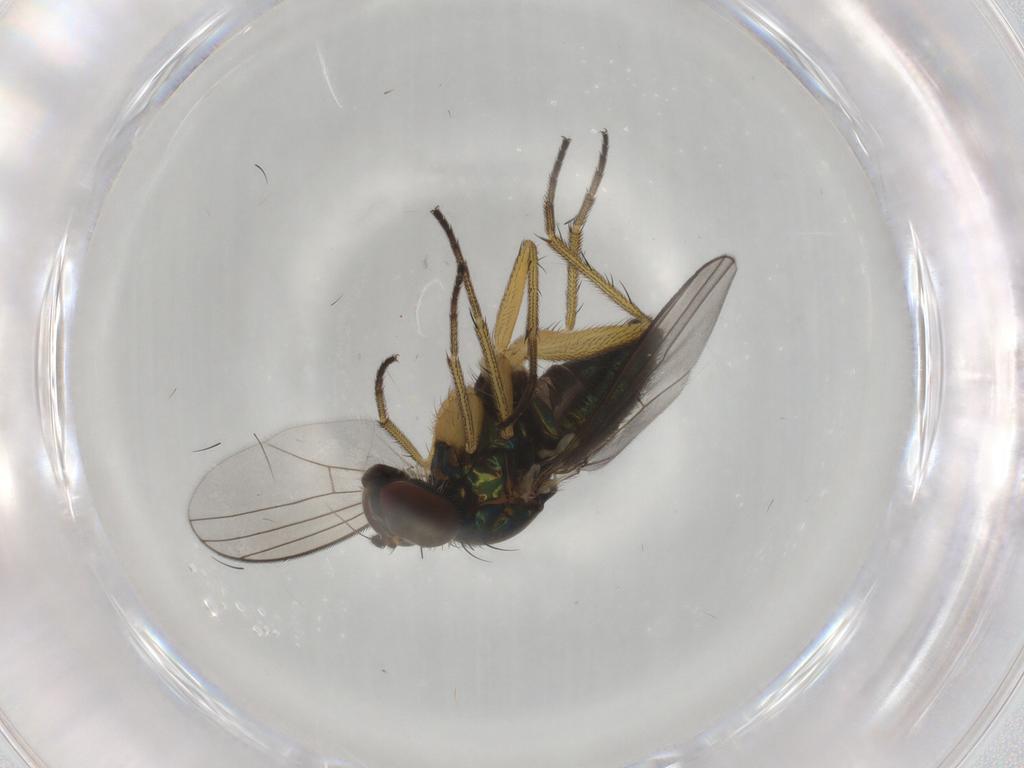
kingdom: Animalia
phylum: Arthropoda
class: Insecta
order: Diptera
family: Dolichopodidae
